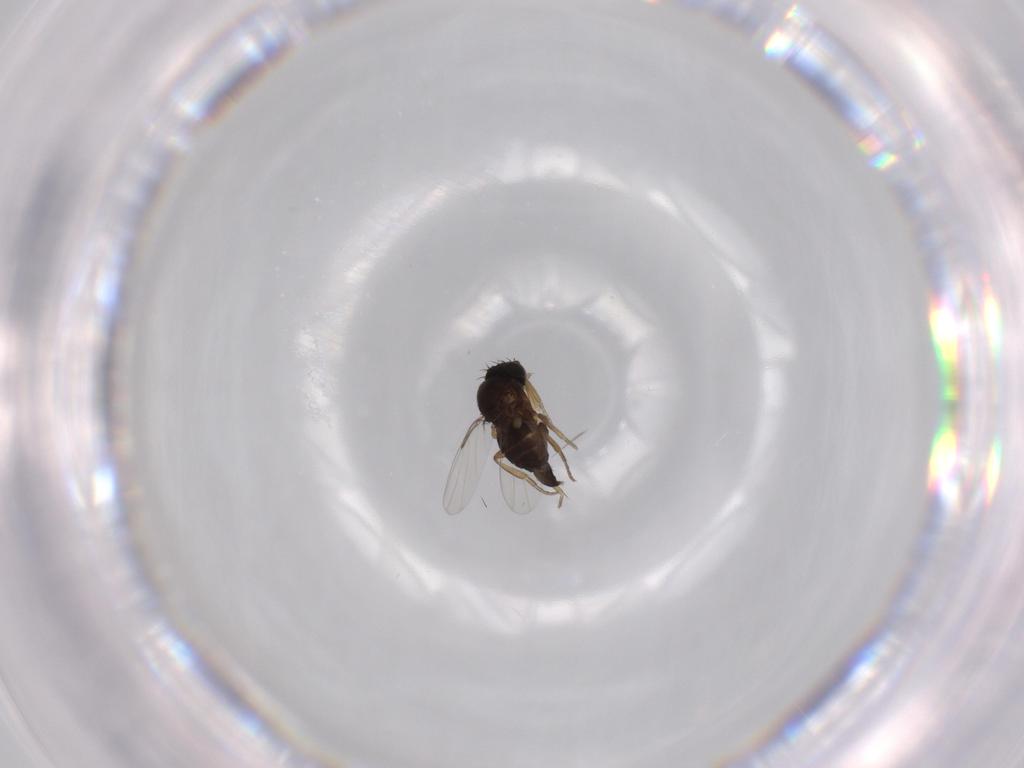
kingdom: Animalia
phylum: Arthropoda
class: Insecta
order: Diptera
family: Phoridae
